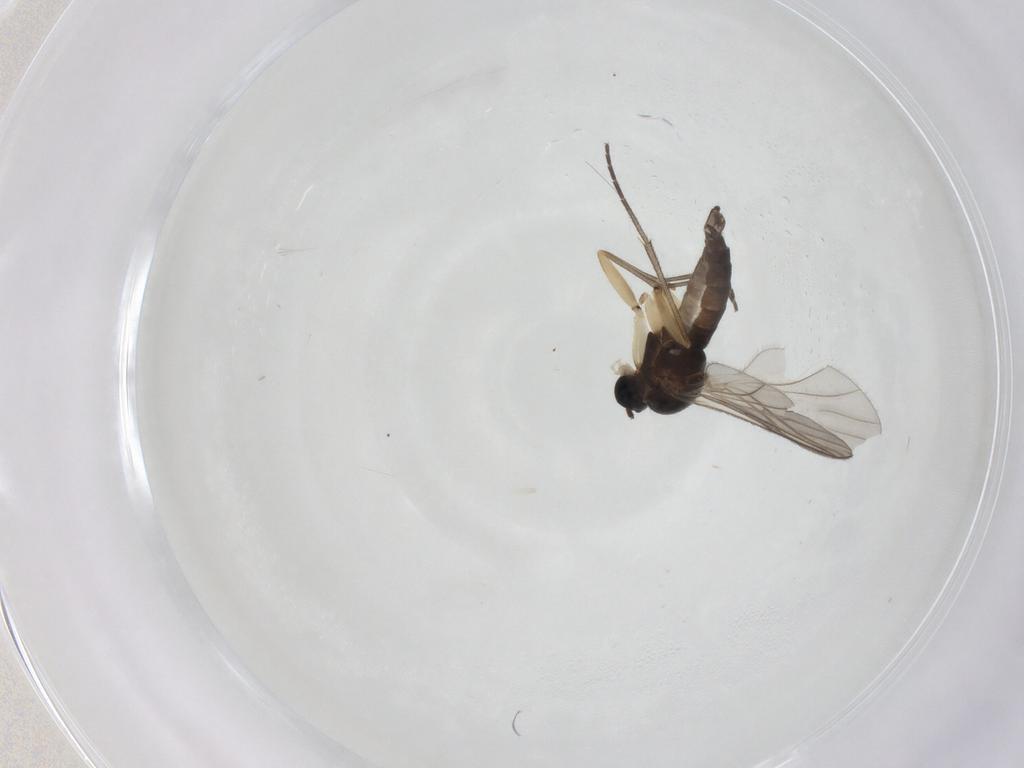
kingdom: Animalia
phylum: Arthropoda
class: Insecta
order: Diptera
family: Sciaridae
